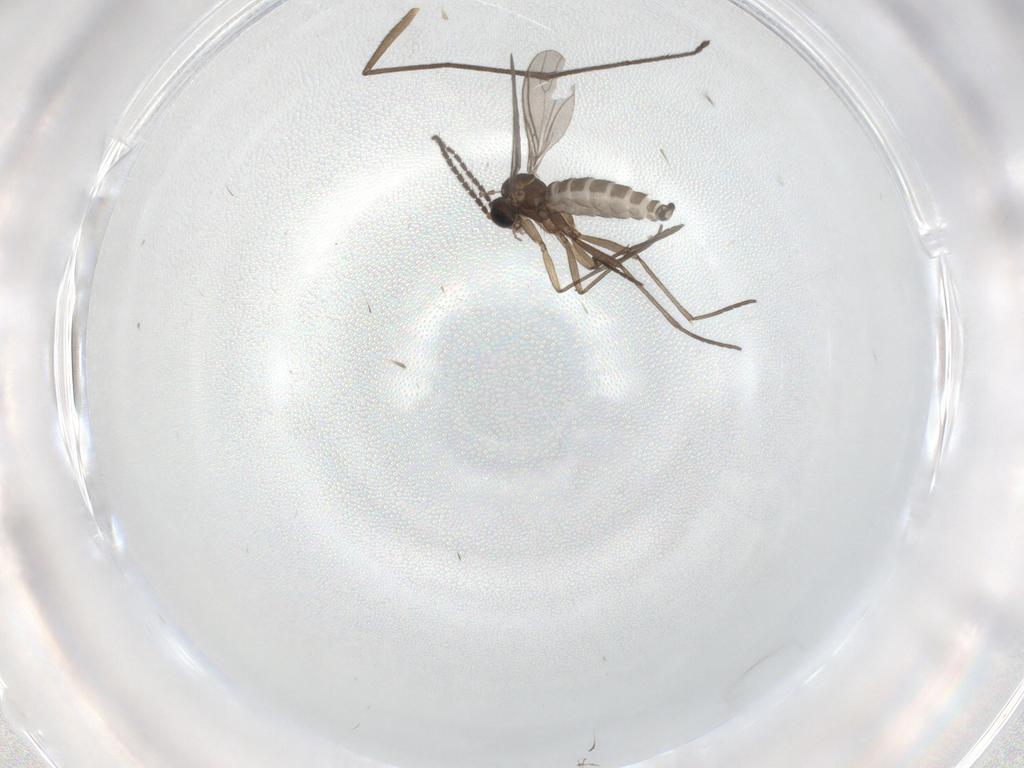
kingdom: Animalia
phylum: Arthropoda
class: Insecta
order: Diptera
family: Sciaridae
